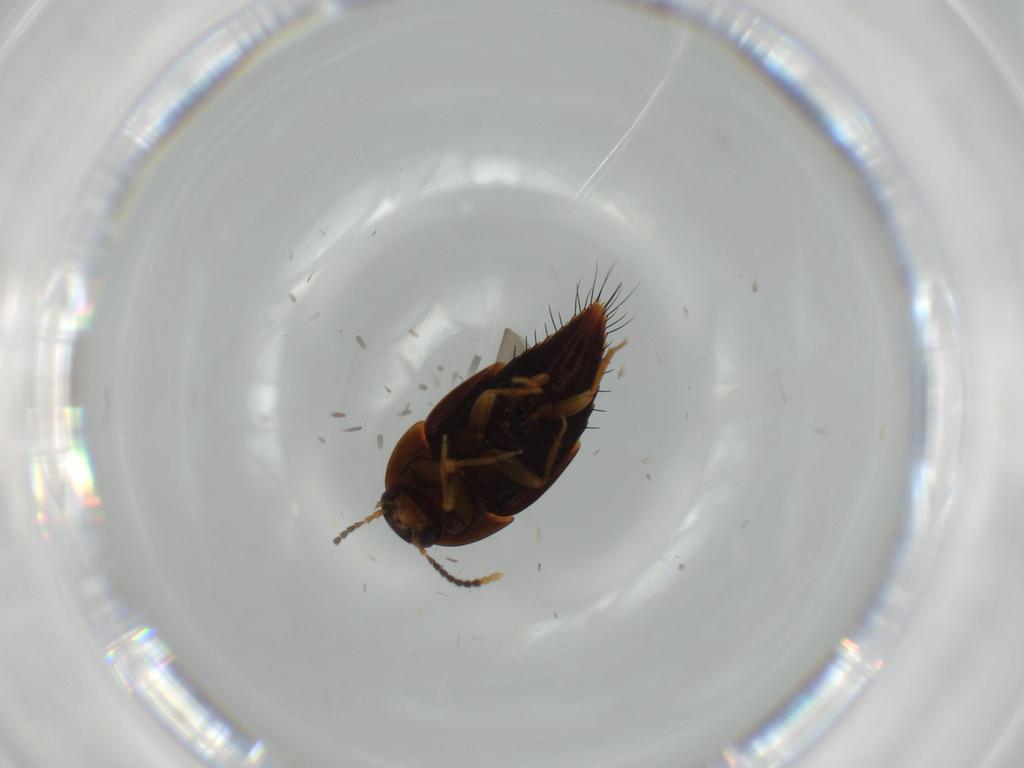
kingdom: Animalia
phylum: Arthropoda
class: Insecta
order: Coleoptera
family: Staphylinidae
